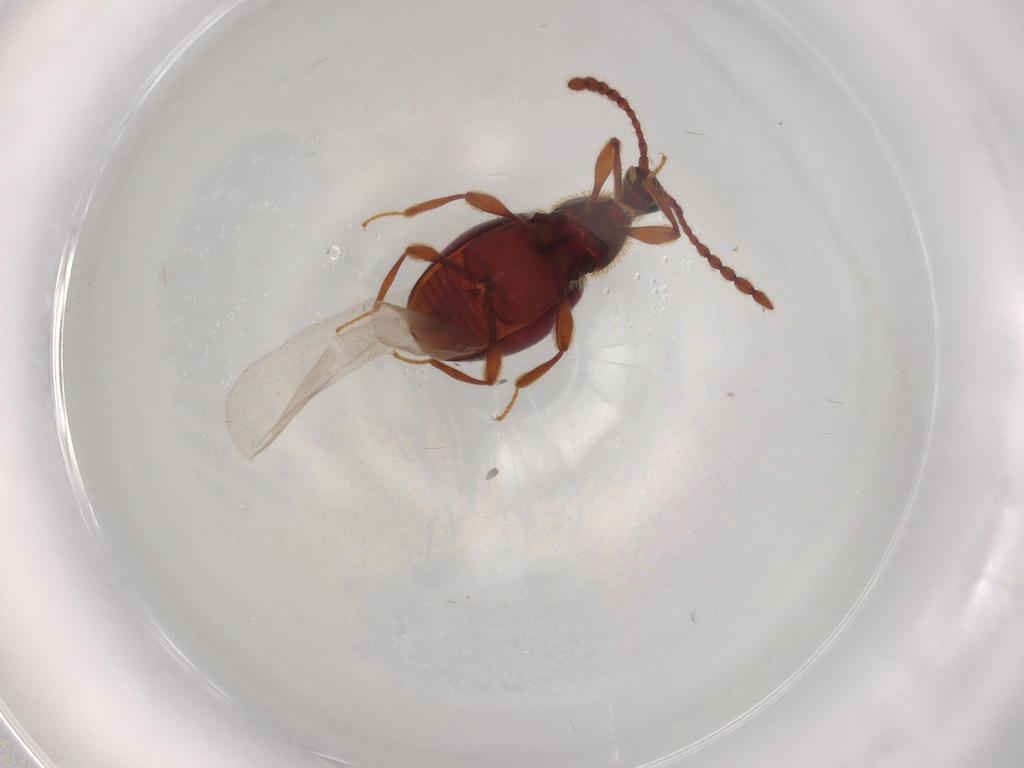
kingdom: Animalia
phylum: Arthropoda
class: Insecta
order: Coleoptera
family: Staphylinidae
